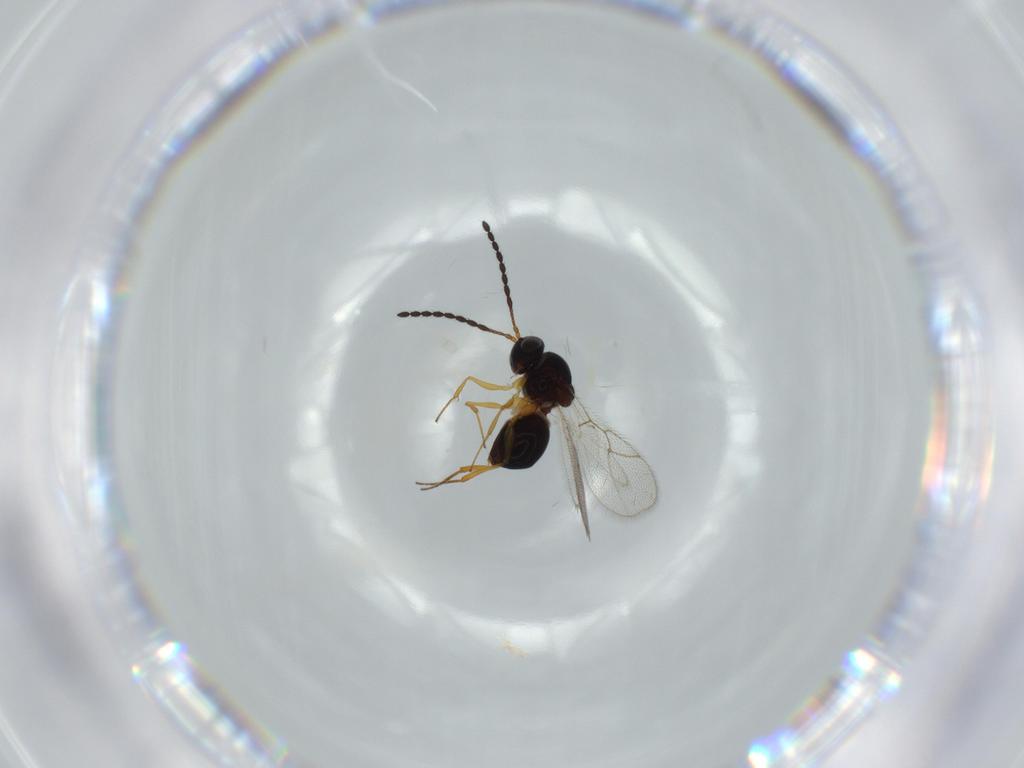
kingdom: Animalia
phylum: Arthropoda
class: Insecta
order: Hymenoptera
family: Figitidae
